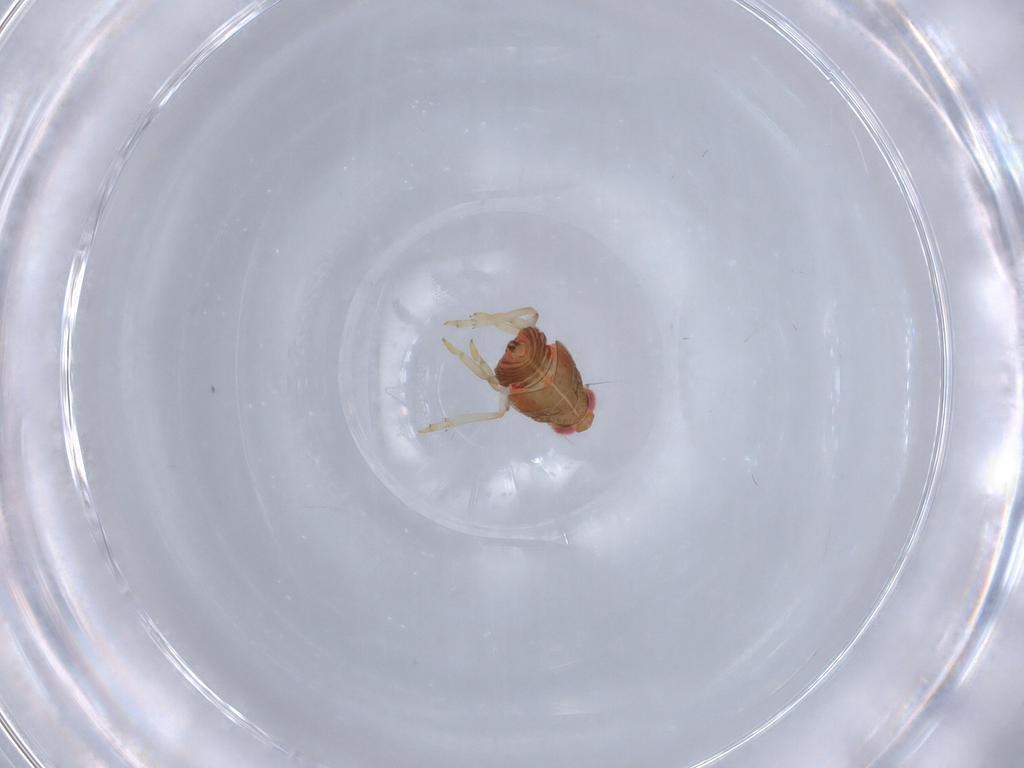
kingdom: Animalia
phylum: Arthropoda
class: Insecta
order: Hemiptera
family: Issidae
